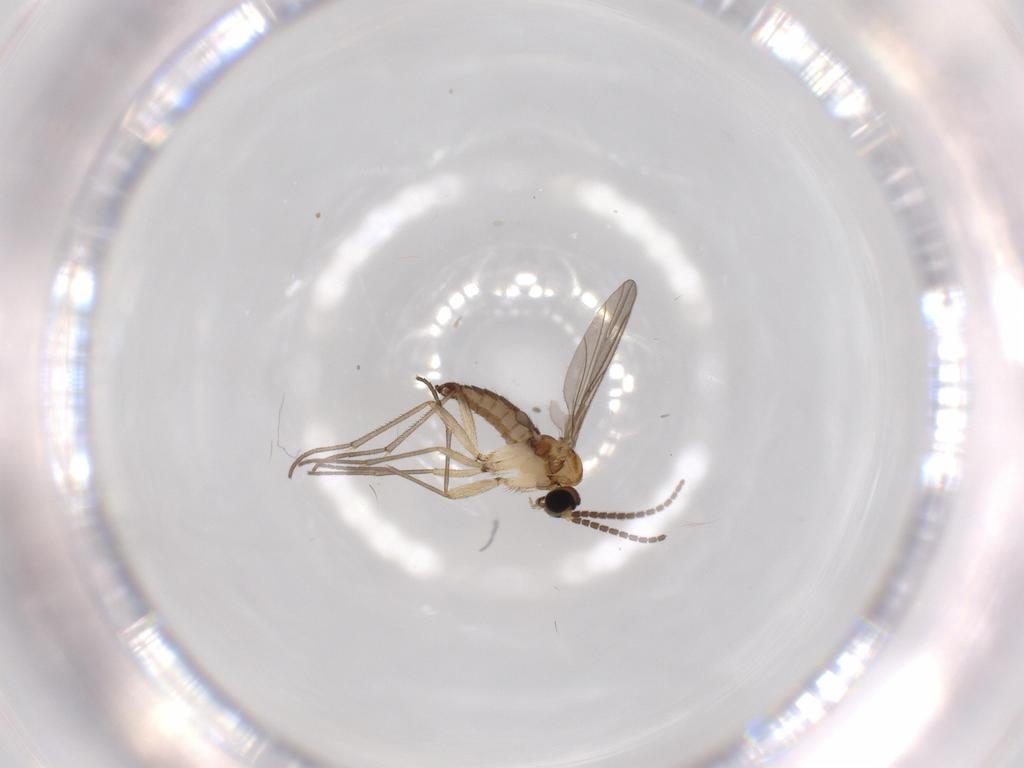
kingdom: Animalia
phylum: Arthropoda
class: Insecta
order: Diptera
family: Sciaridae
